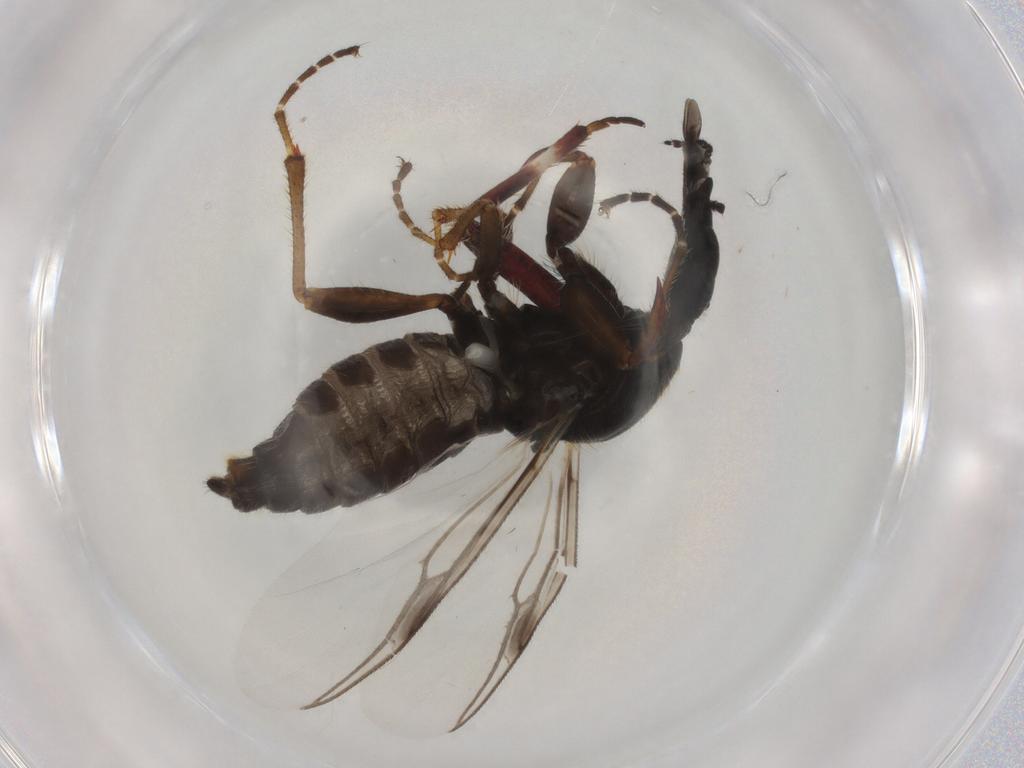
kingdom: Animalia
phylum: Arthropoda
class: Insecta
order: Diptera
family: Bibionidae
